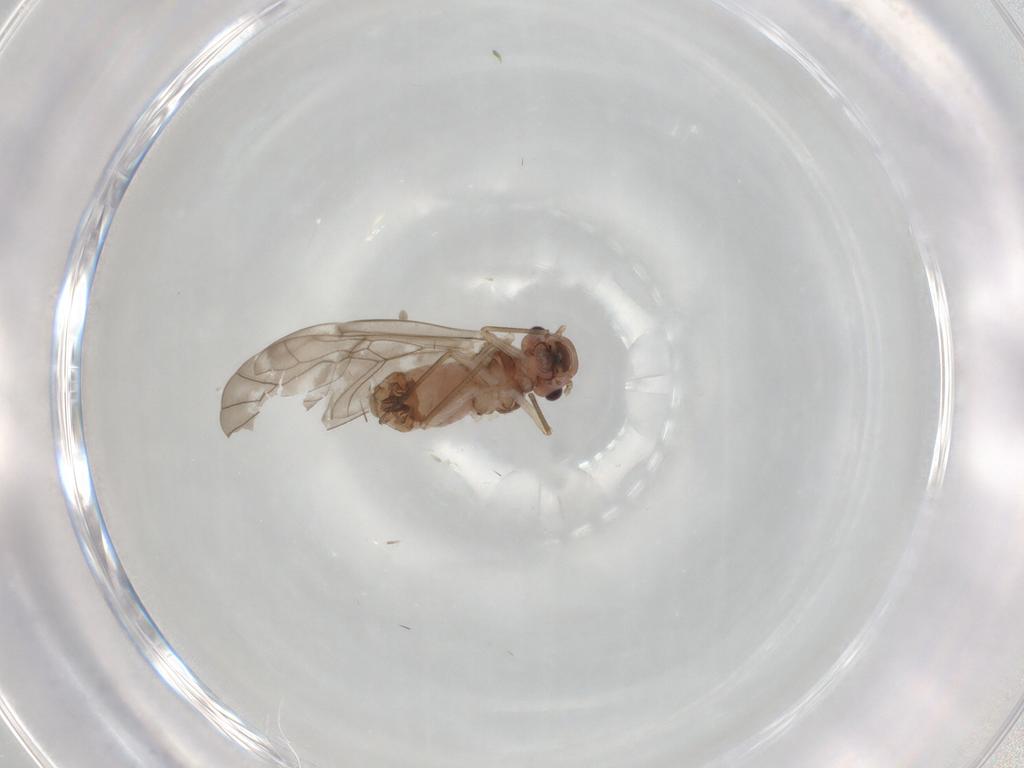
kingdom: Animalia
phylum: Arthropoda
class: Insecta
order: Psocodea
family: Peripsocidae
